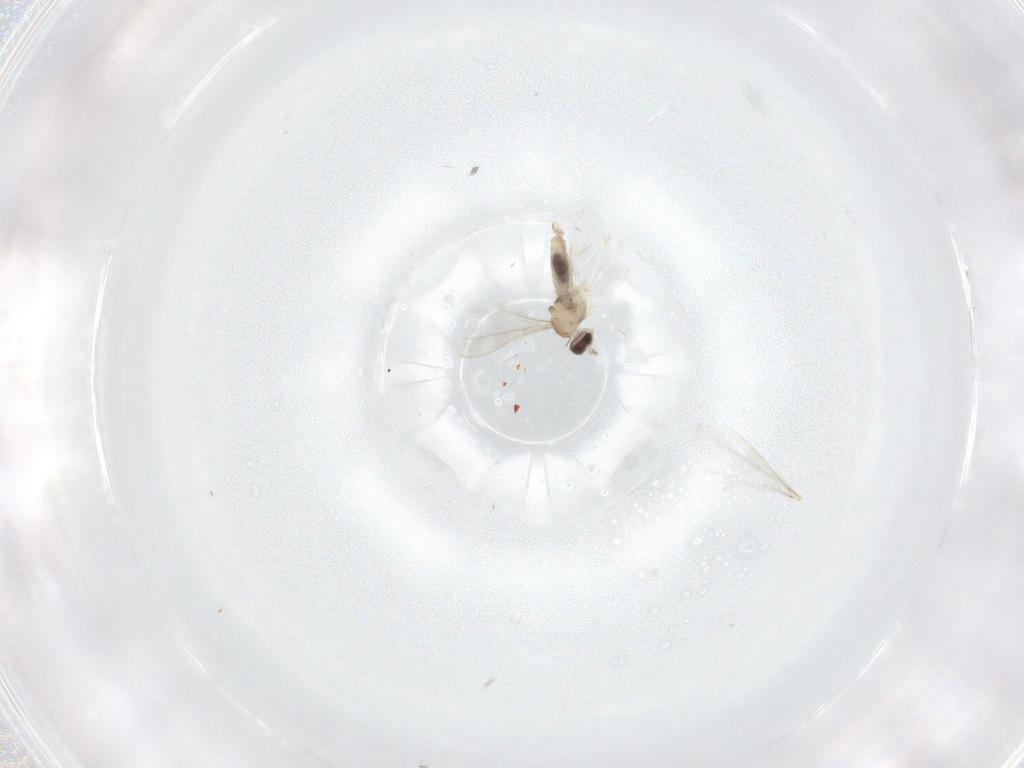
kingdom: Animalia
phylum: Arthropoda
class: Insecta
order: Diptera
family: Cecidomyiidae
